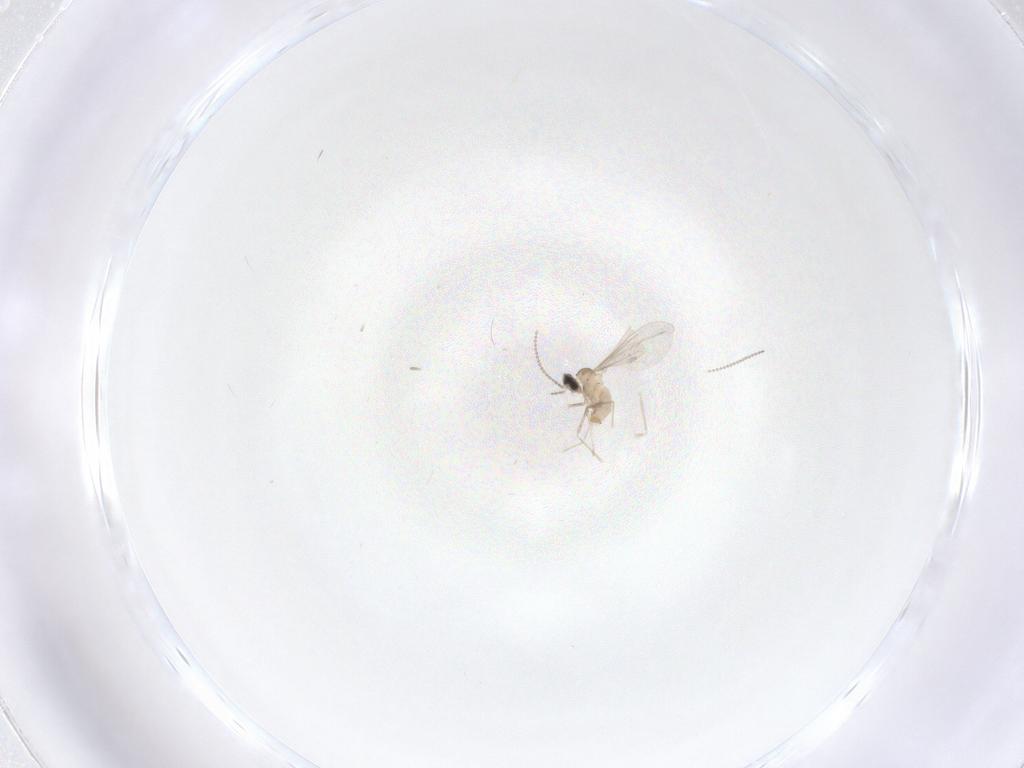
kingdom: Animalia
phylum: Arthropoda
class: Insecta
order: Diptera
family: Cecidomyiidae
